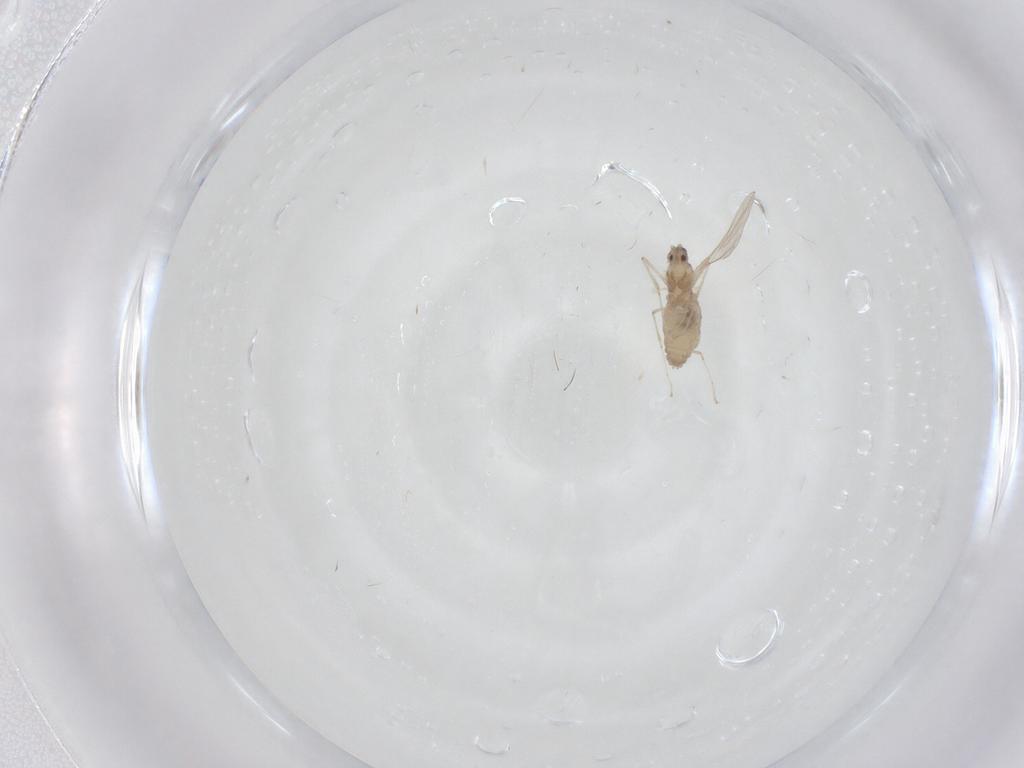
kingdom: Animalia
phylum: Arthropoda
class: Insecta
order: Diptera
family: Cecidomyiidae
